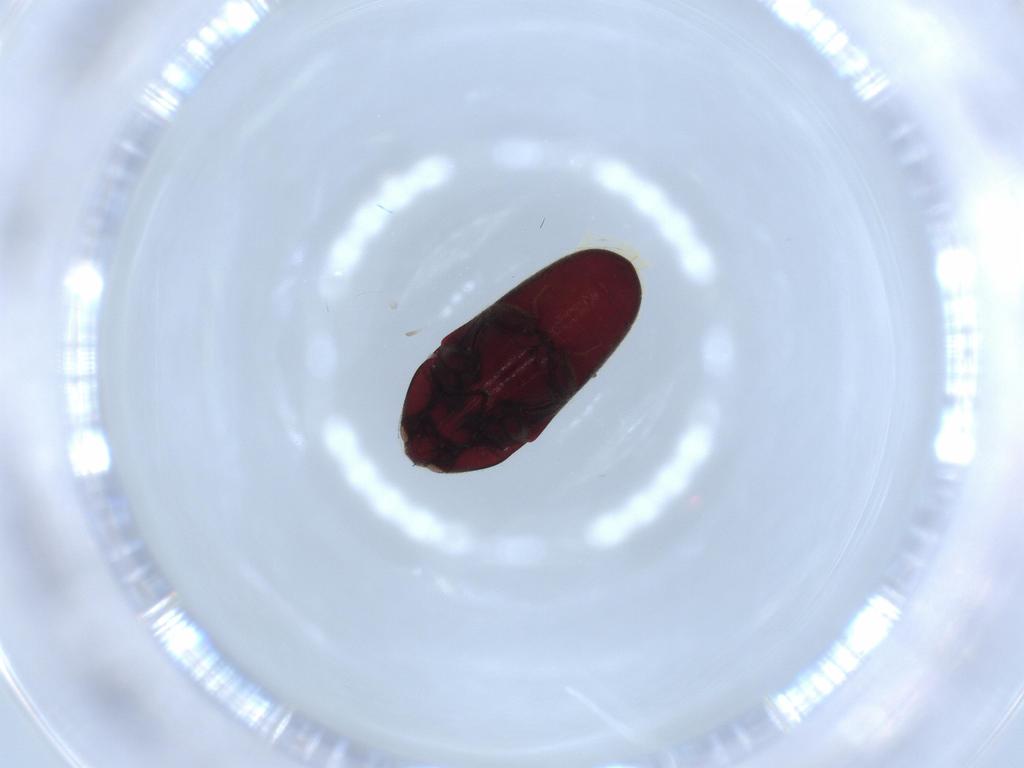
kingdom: Animalia
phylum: Arthropoda
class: Insecta
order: Coleoptera
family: Throscidae
